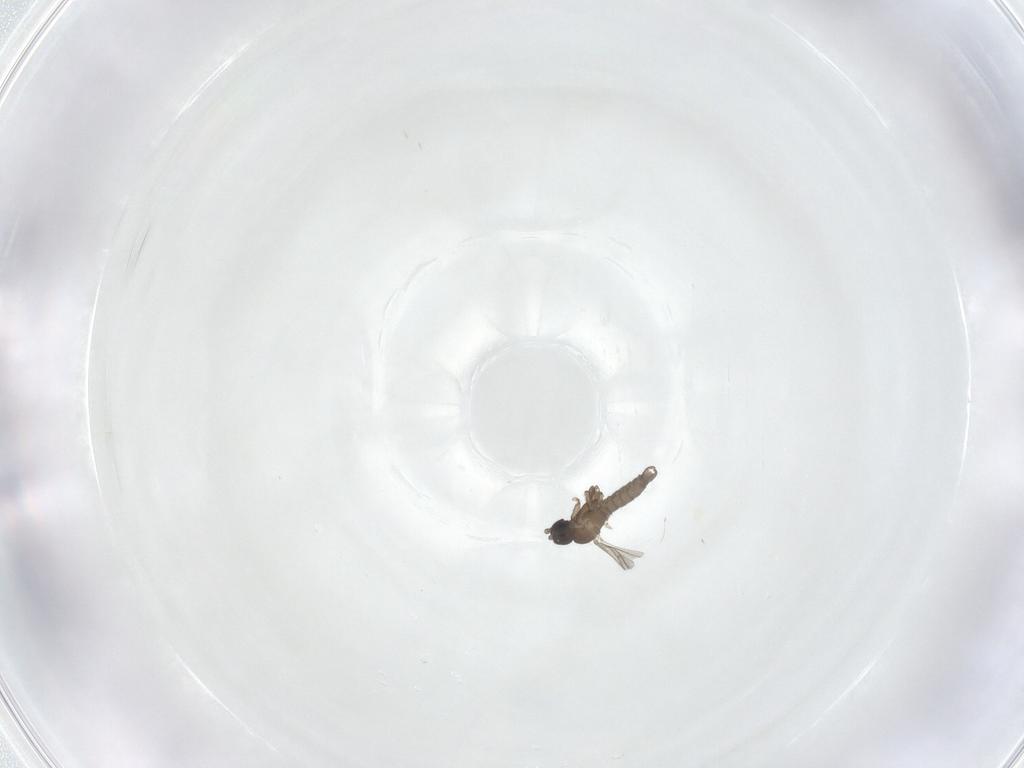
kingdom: Animalia
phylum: Arthropoda
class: Insecta
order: Diptera
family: Sciaridae
